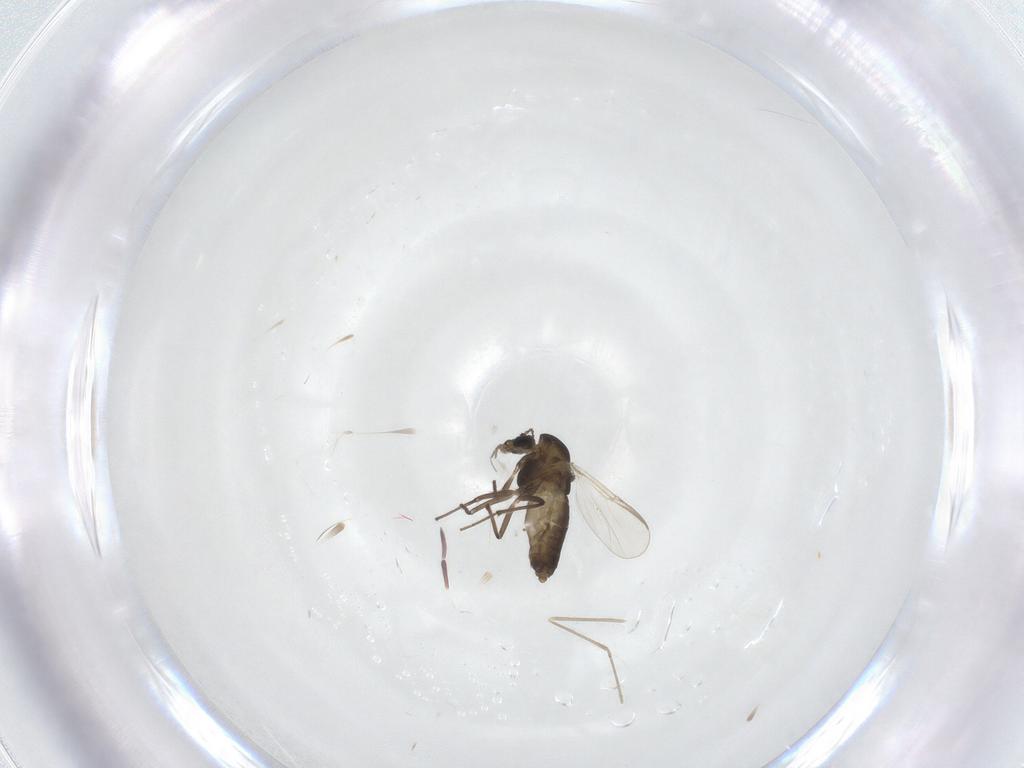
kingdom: Animalia
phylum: Arthropoda
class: Insecta
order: Diptera
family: Chironomidae
